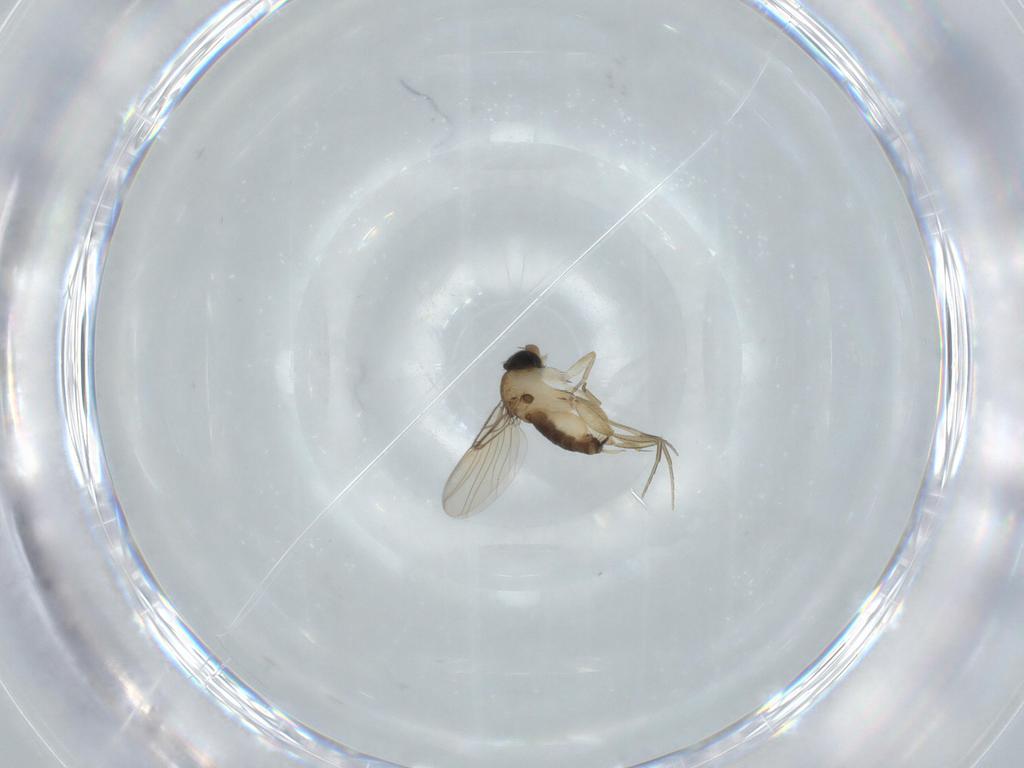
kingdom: Animalia
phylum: Arthropoda
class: Insecta
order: Diptera
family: Phoridae
